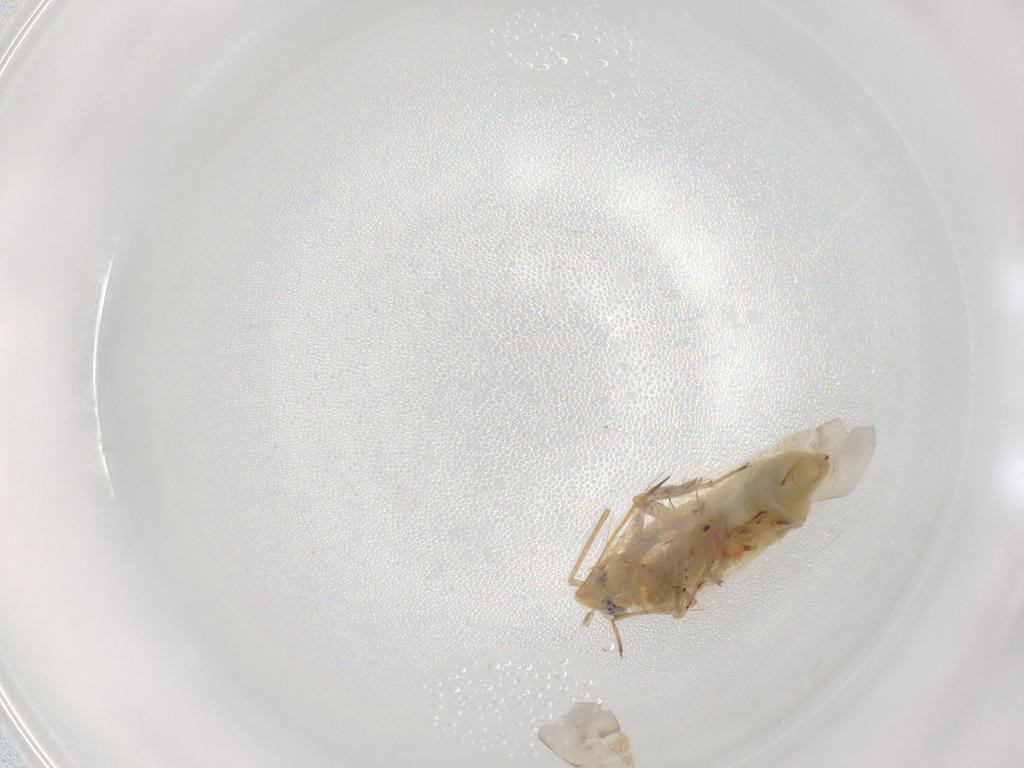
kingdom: Animalia
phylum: Arthropoda
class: Insecta
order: Hemiptera
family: Miridae
